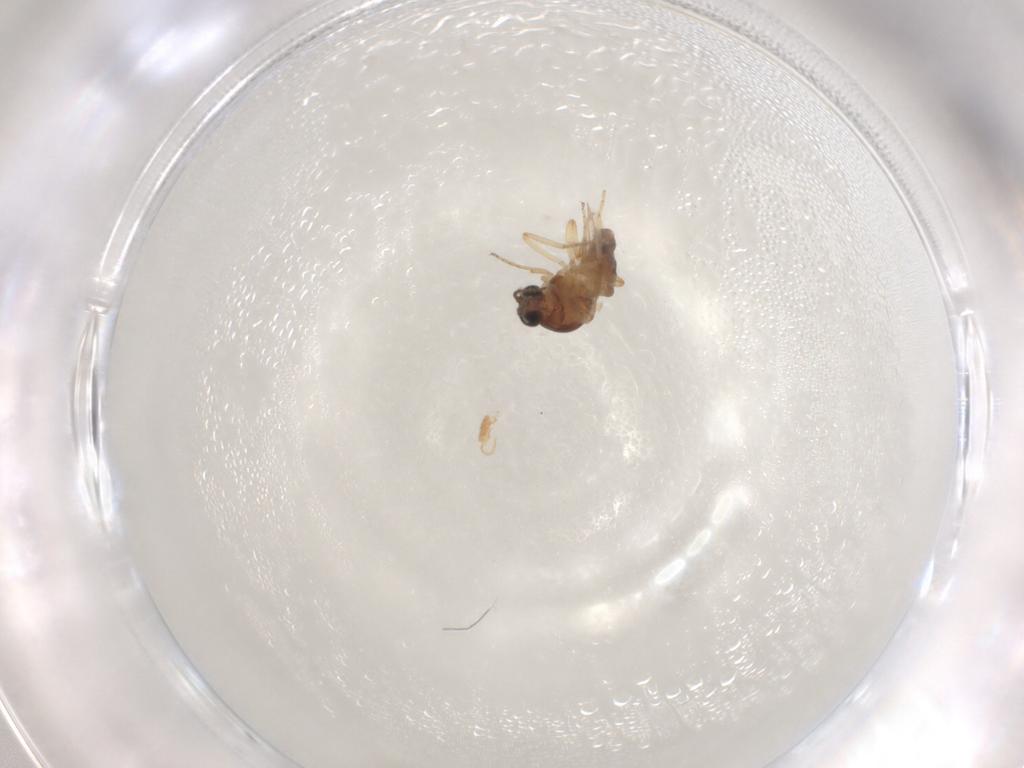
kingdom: Animalia
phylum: Arthropoda
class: Insecta
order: Diptera
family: Ceratopogonidae
